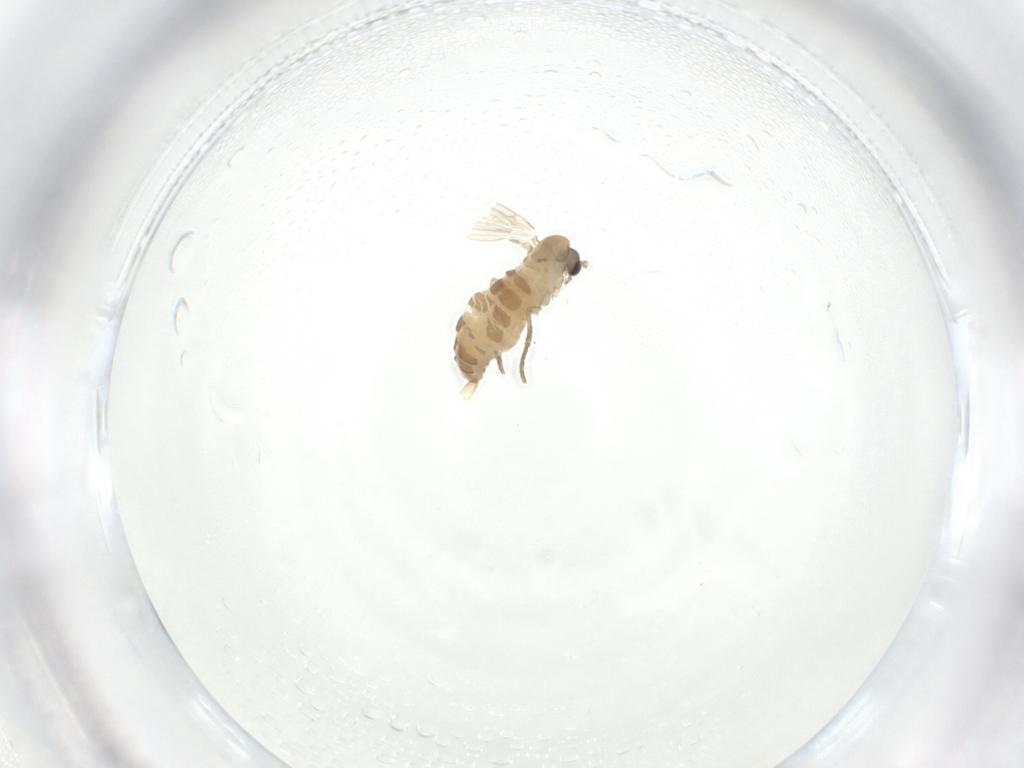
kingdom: Animalia
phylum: Arthropoda
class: Insecta
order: Diptera
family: Psychodidae
